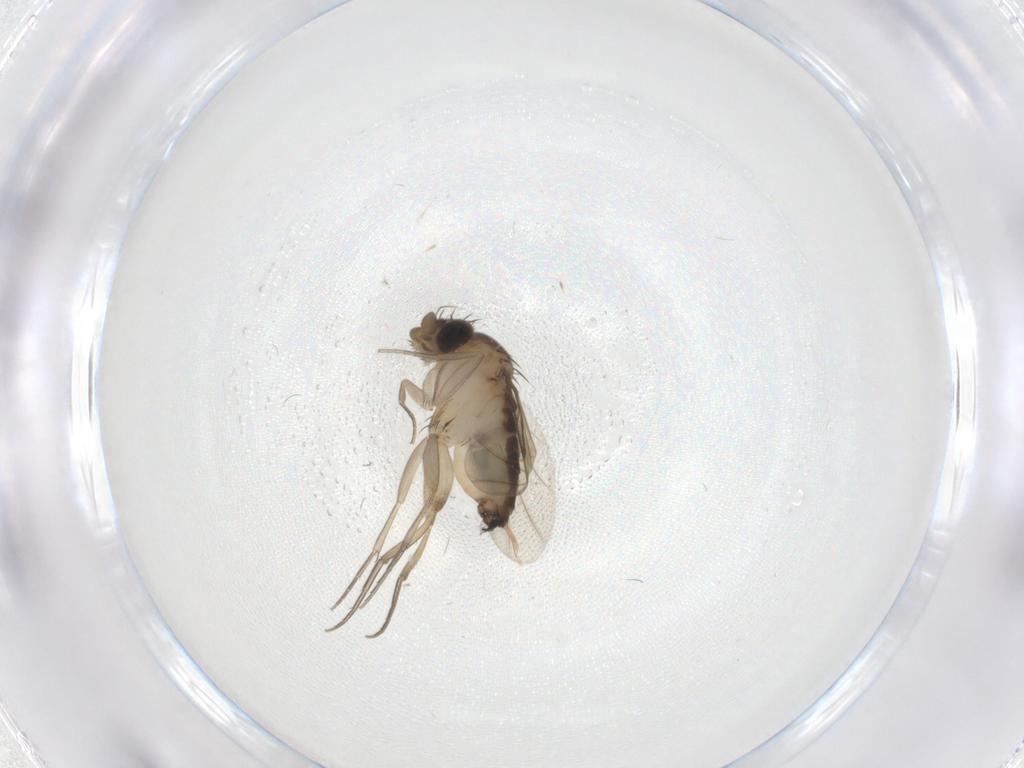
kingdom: Animalia
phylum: Arthropoda
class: Insecta
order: Diptera
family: Phoridae
